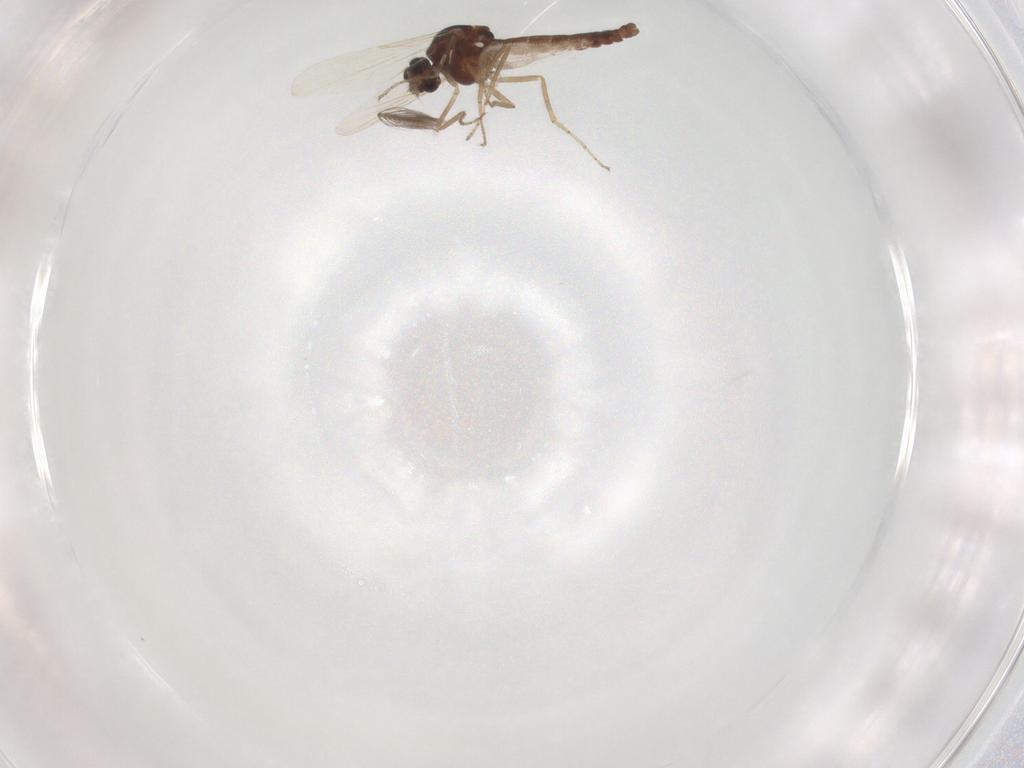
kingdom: Animalia
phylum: Arthropoda
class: Insecta
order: Diptera
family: Ceratopogonidae
